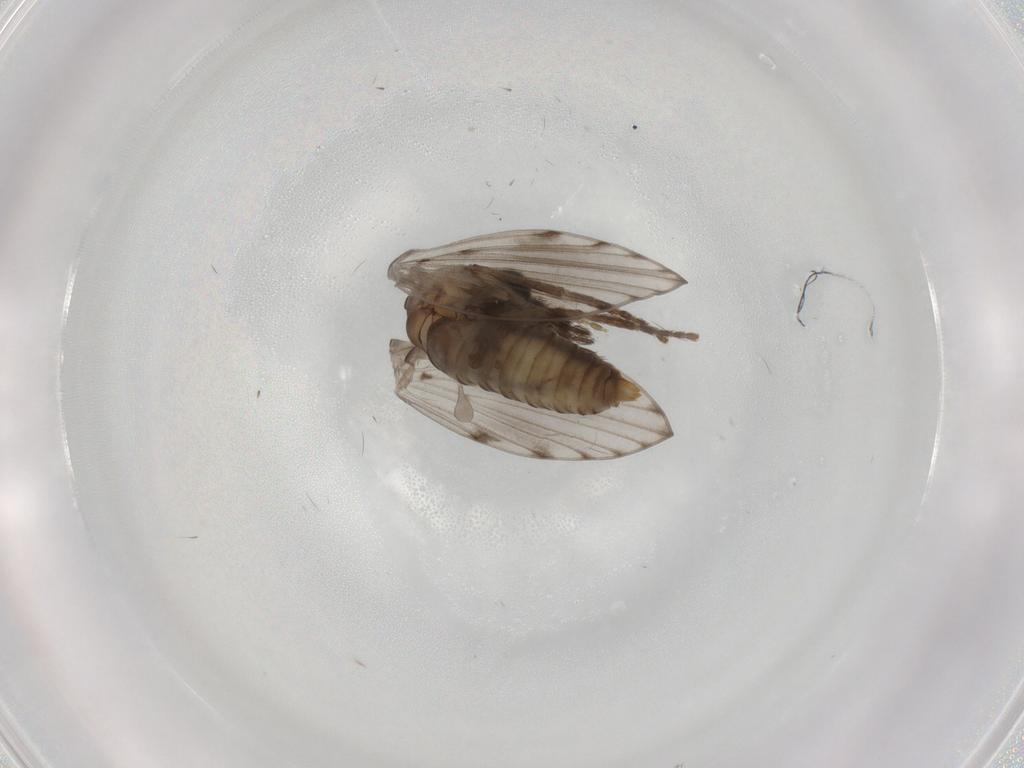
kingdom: Animalia
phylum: Arthropoda
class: Insecta
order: Diptera
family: Psychodidae
